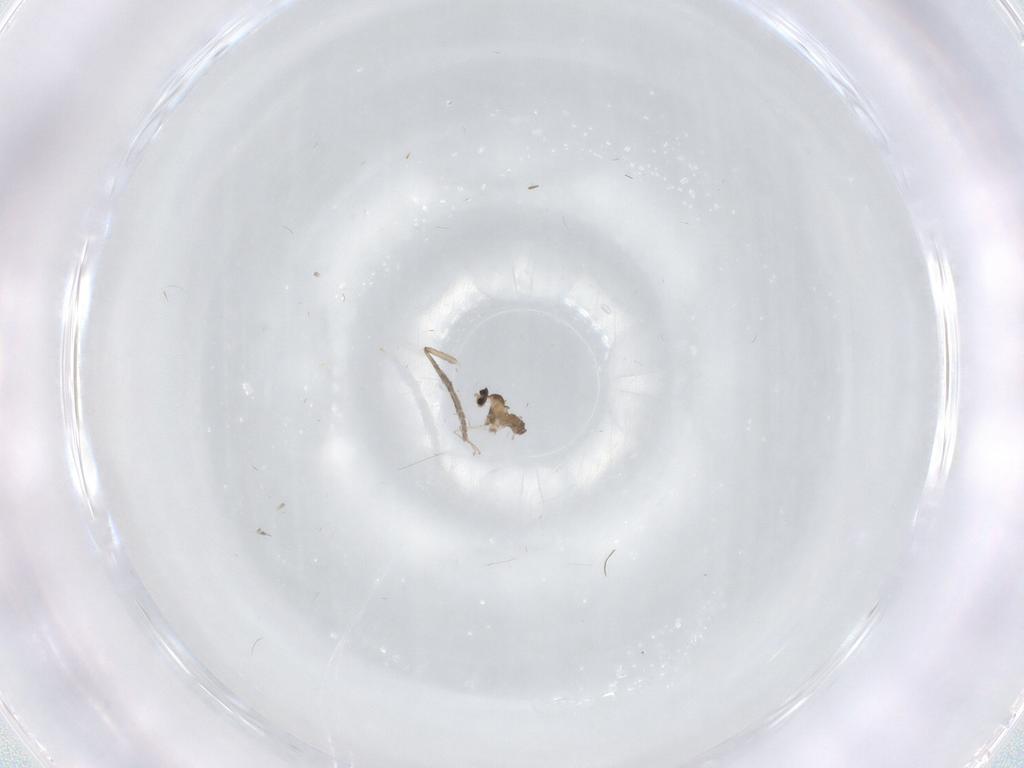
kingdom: Animalia
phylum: Arthropoda
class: Insecta
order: Diptera
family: Cecidomyiidae
